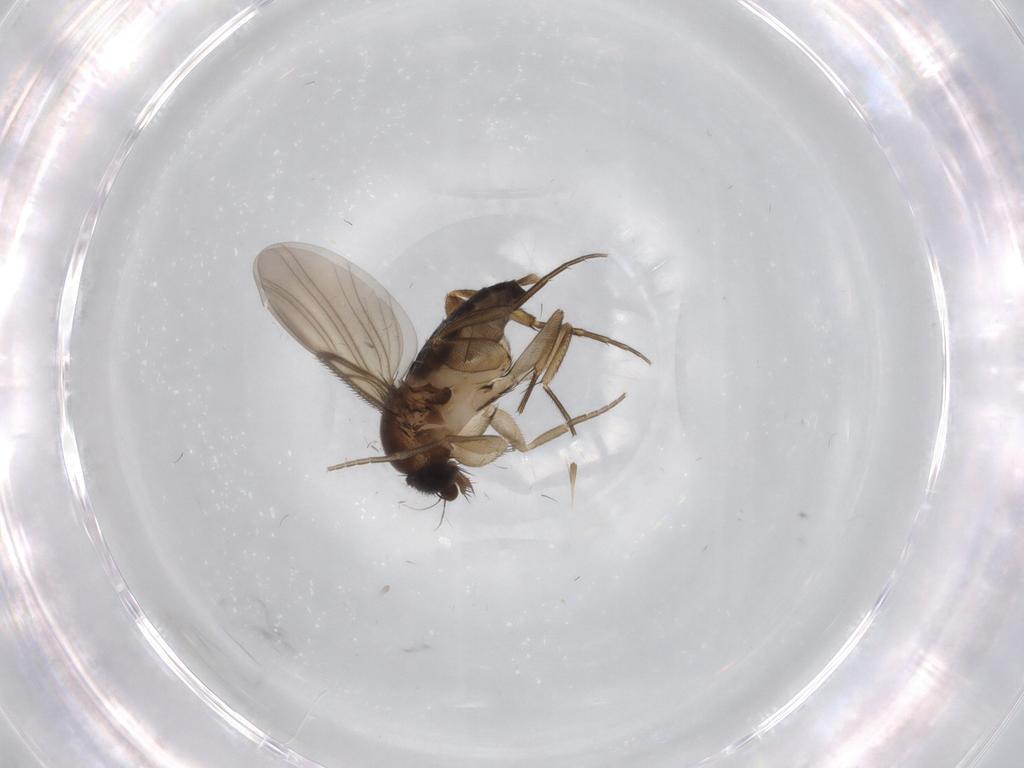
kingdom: Animalia
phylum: Arthropoda
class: Insecta
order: Diptera
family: Phoridae
